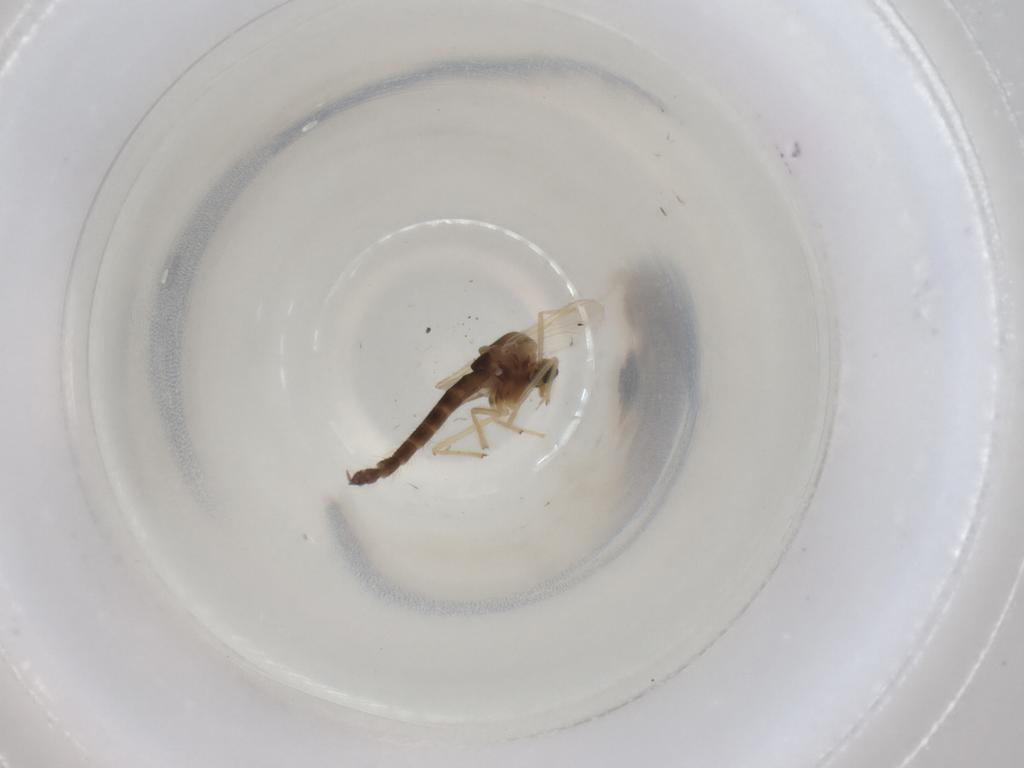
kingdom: Animalia
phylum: Arthropoda
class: Insecta
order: Diptera
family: Chironomidae
